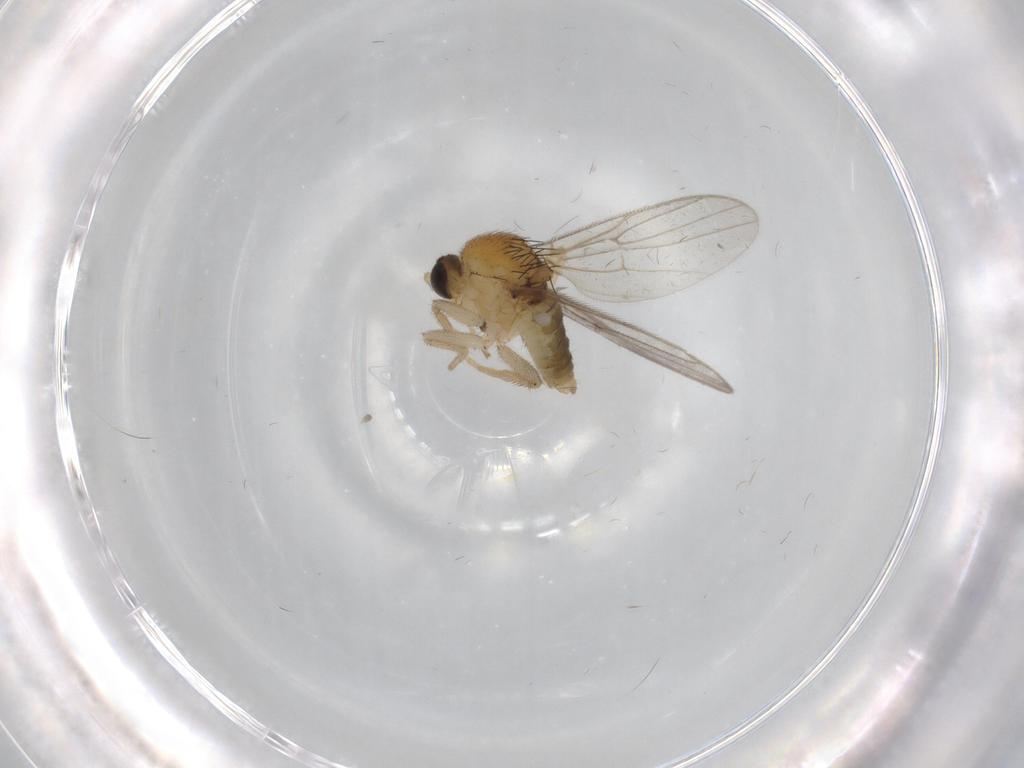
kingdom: Animalia
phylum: Arthropoda
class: Insecta
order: Diptera
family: Hybotidae
